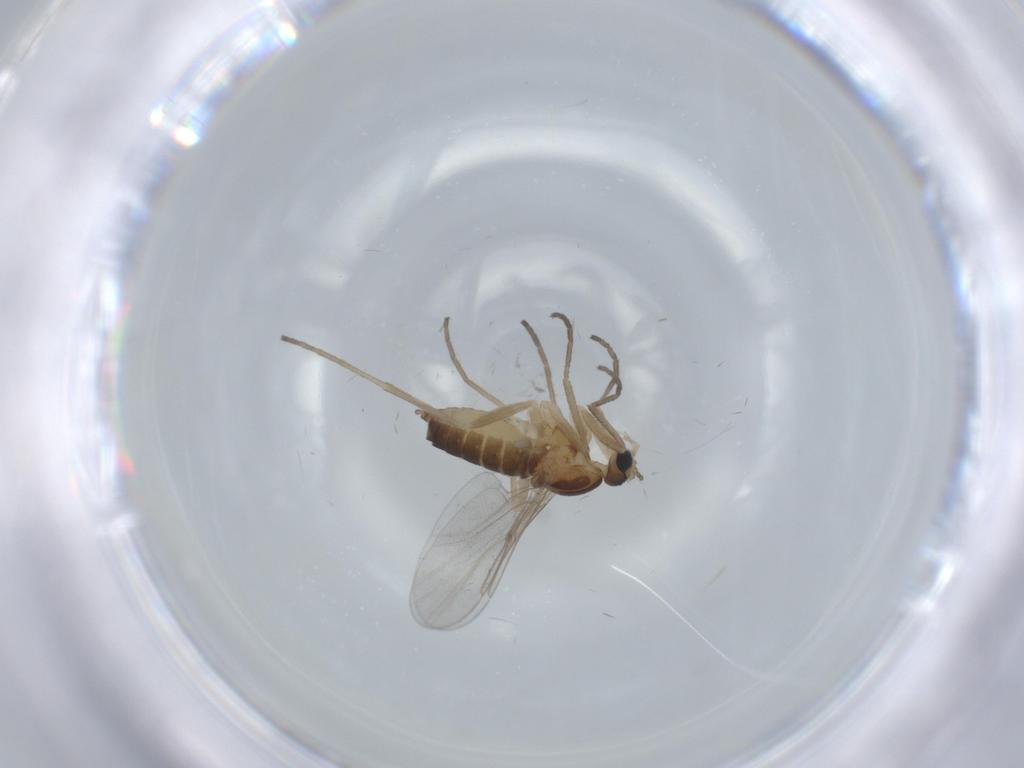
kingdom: Animalia
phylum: Arthropoda
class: Insecta
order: Diptera
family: Cecidomyiidae
